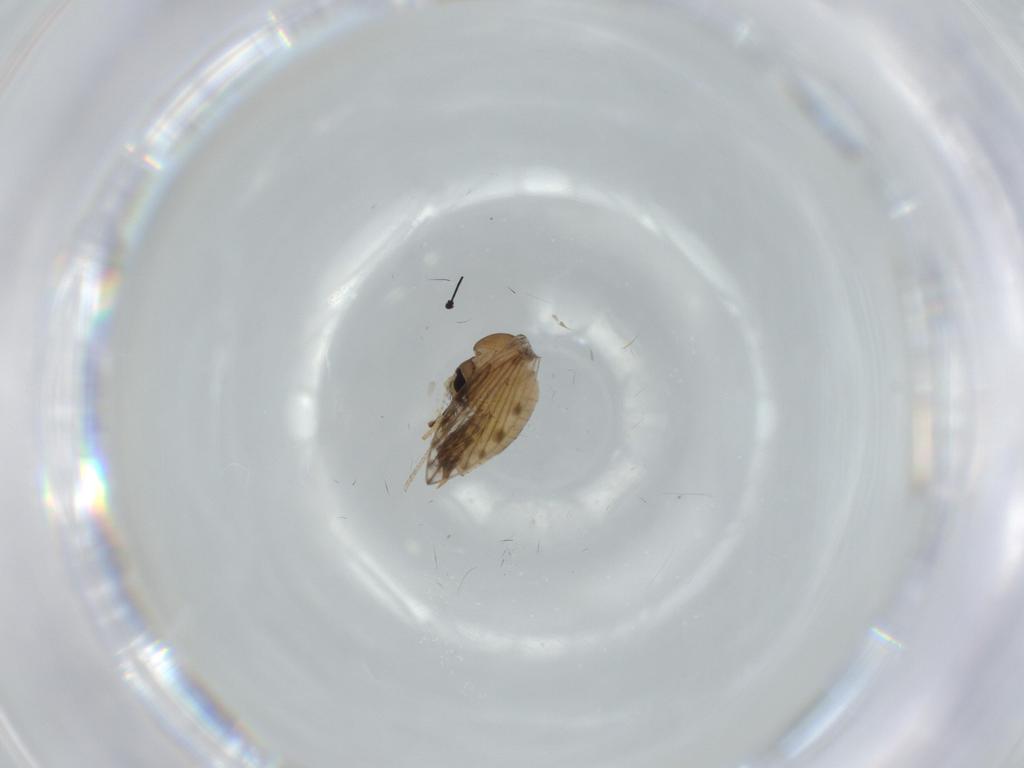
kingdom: Animalia
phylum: Arthropoda
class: Insecta
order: Diptera
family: Psychodidae
